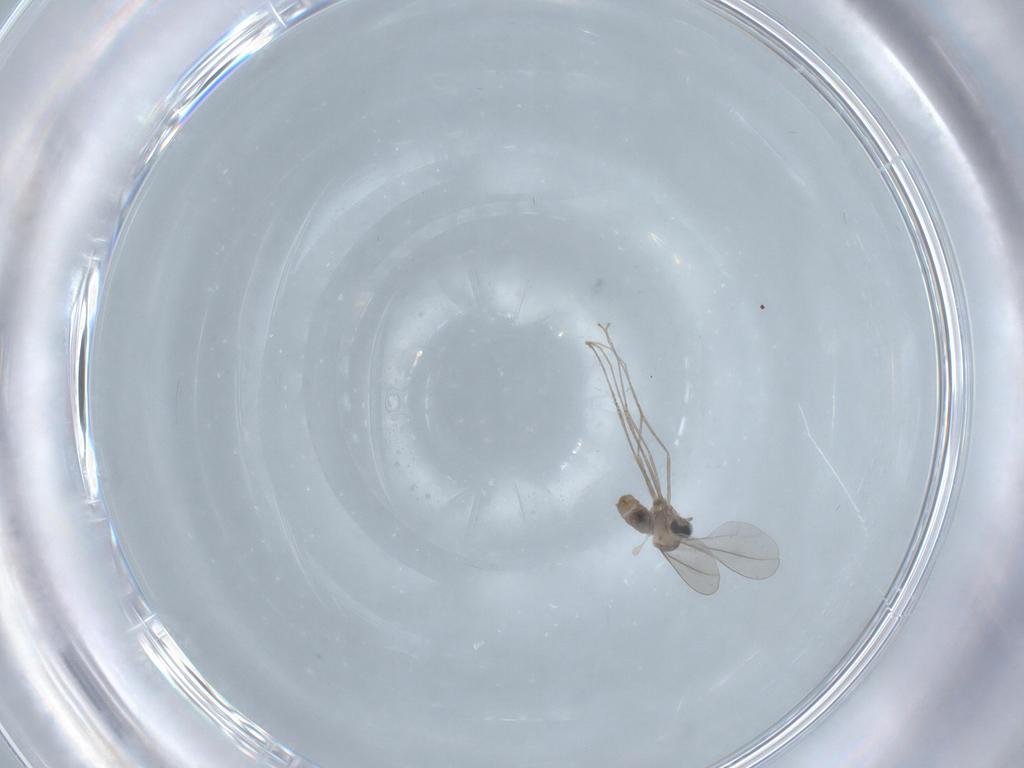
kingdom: Animalia
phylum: Arthropoda
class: Insecta
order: Diptera
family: Cecidomyiidae
